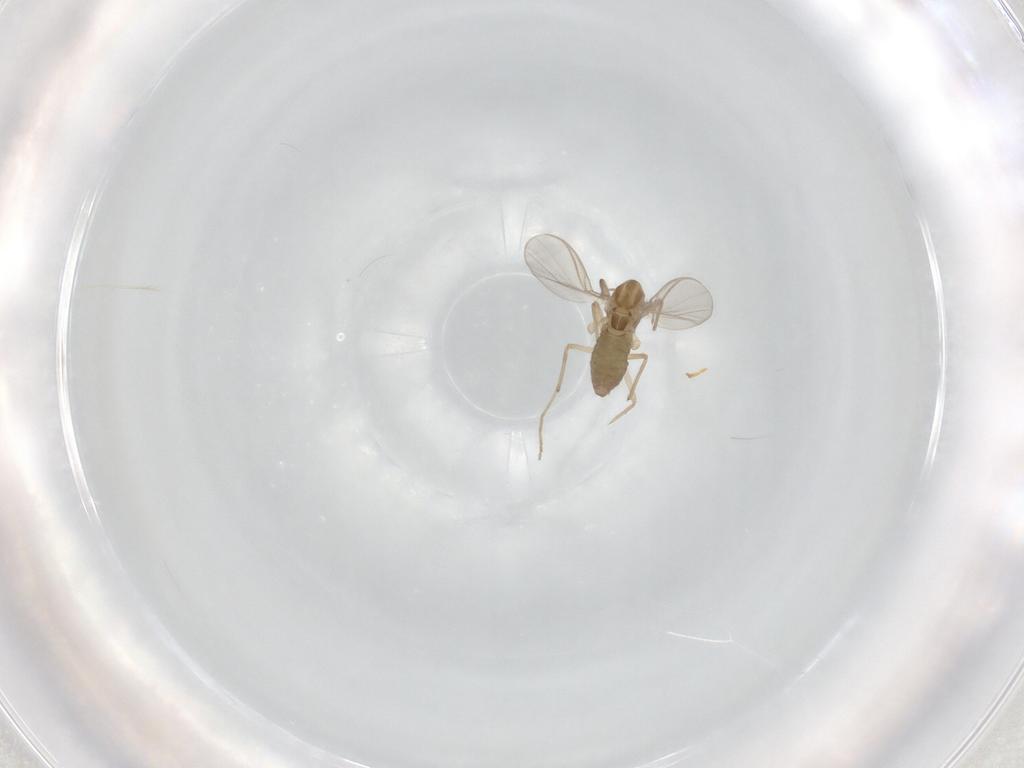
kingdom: Animalia
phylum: Arthropoda
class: Insecta
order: Diptera
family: Chironomidae
